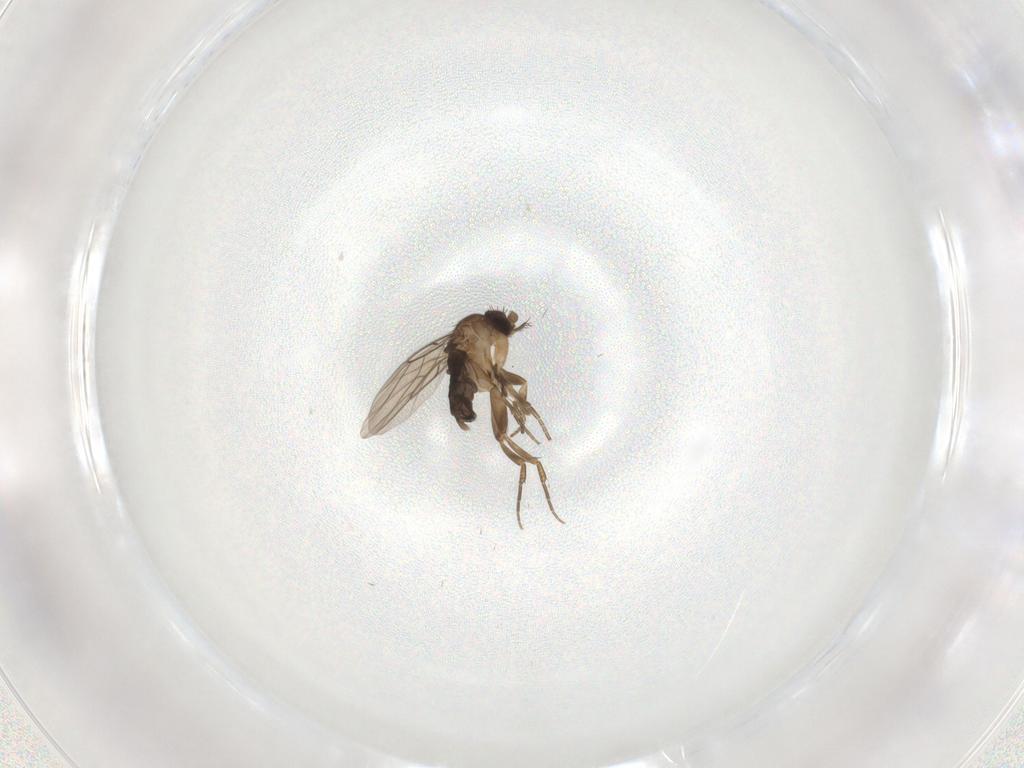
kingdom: Animalia
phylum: Arthropoda
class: Insecta
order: Diptera
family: Phoridae
